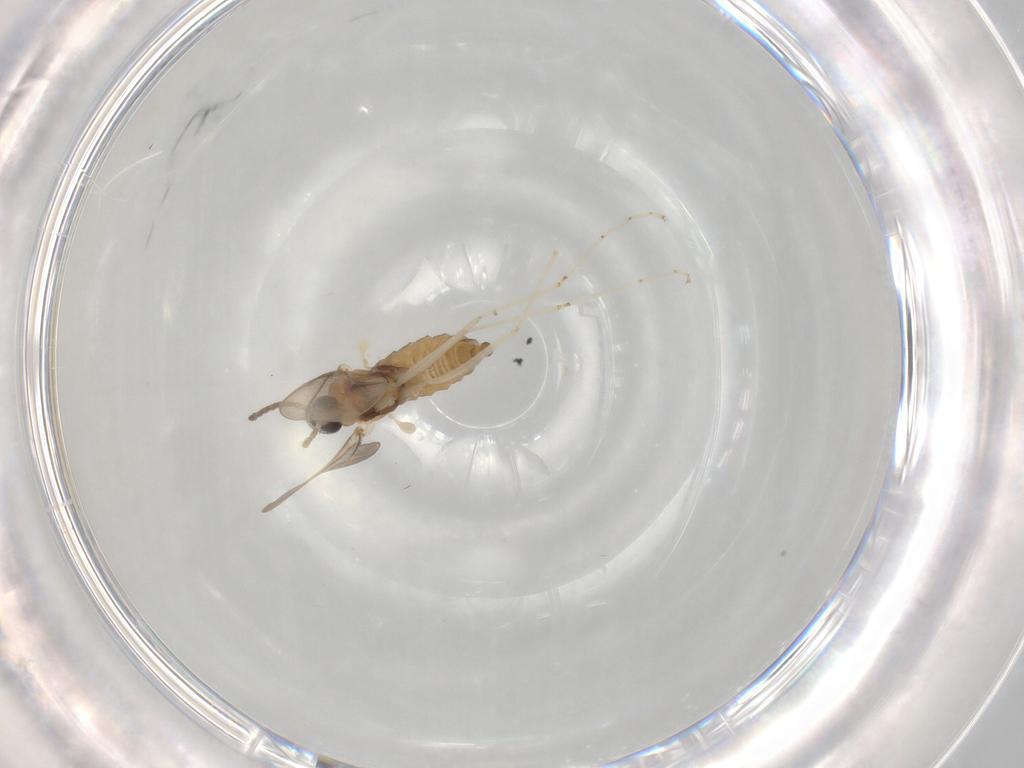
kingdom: Animalia
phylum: Arthropoda
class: Insecta
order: Diptera
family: Cecidomyiidae
